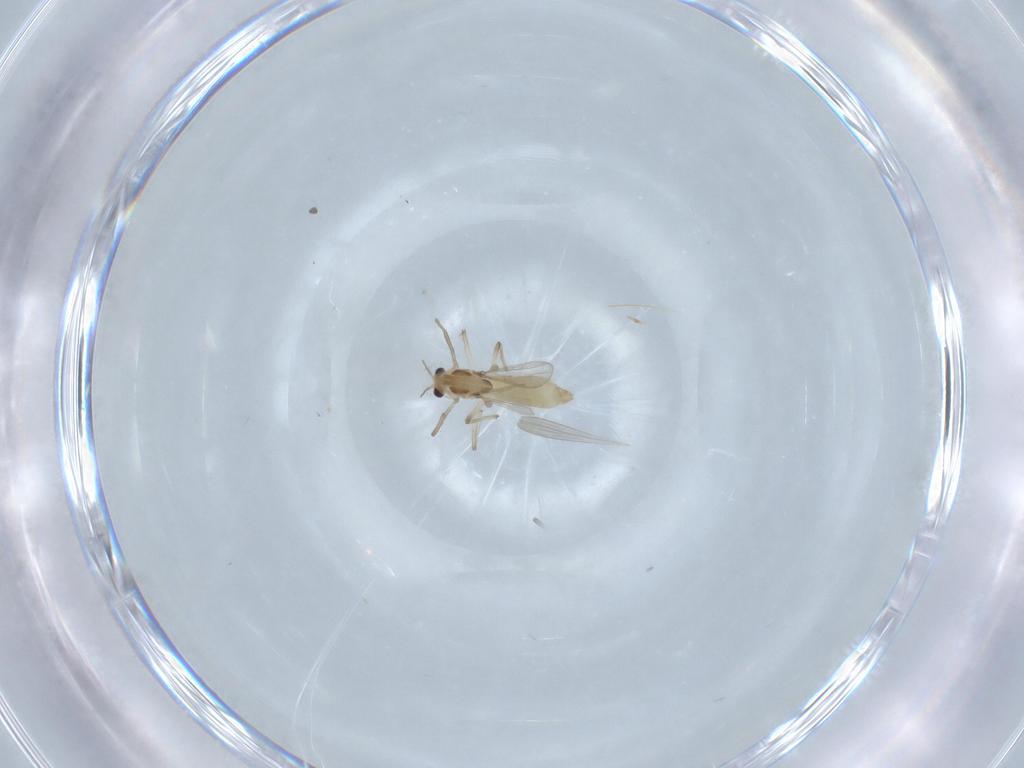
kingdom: Animalia
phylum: Arthropoda
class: Insecta
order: Diptera
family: Chironomidae
